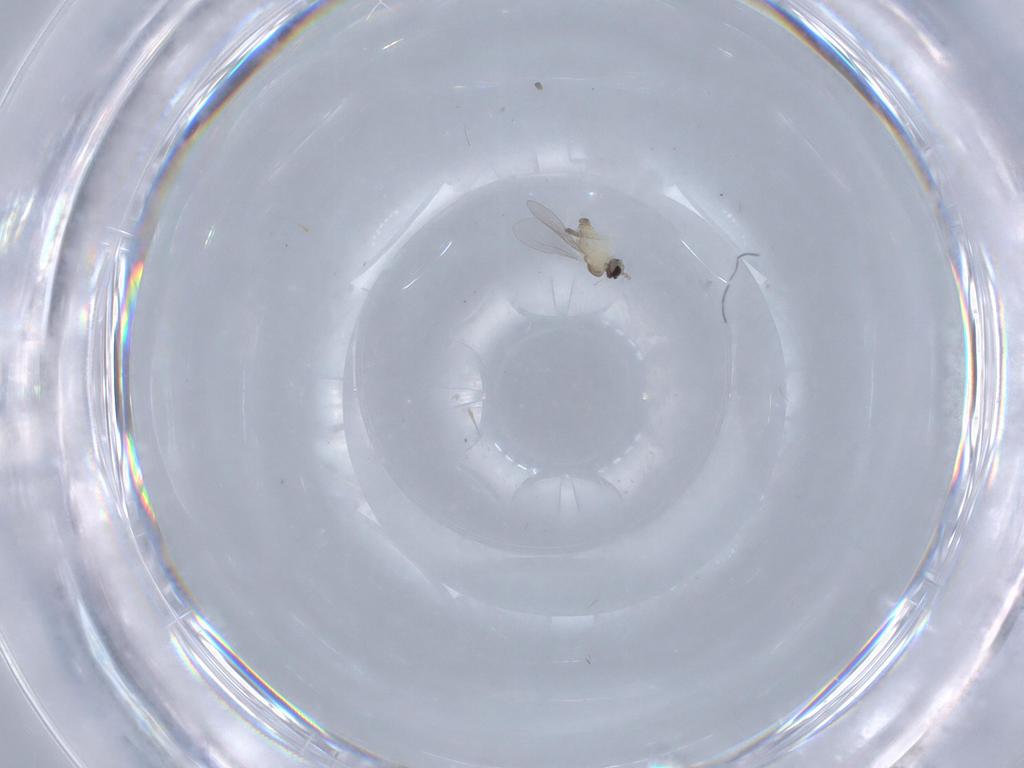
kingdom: Animalia
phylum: Arthropoda
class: Insecta
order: Diptera
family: Cecidomyiidae
